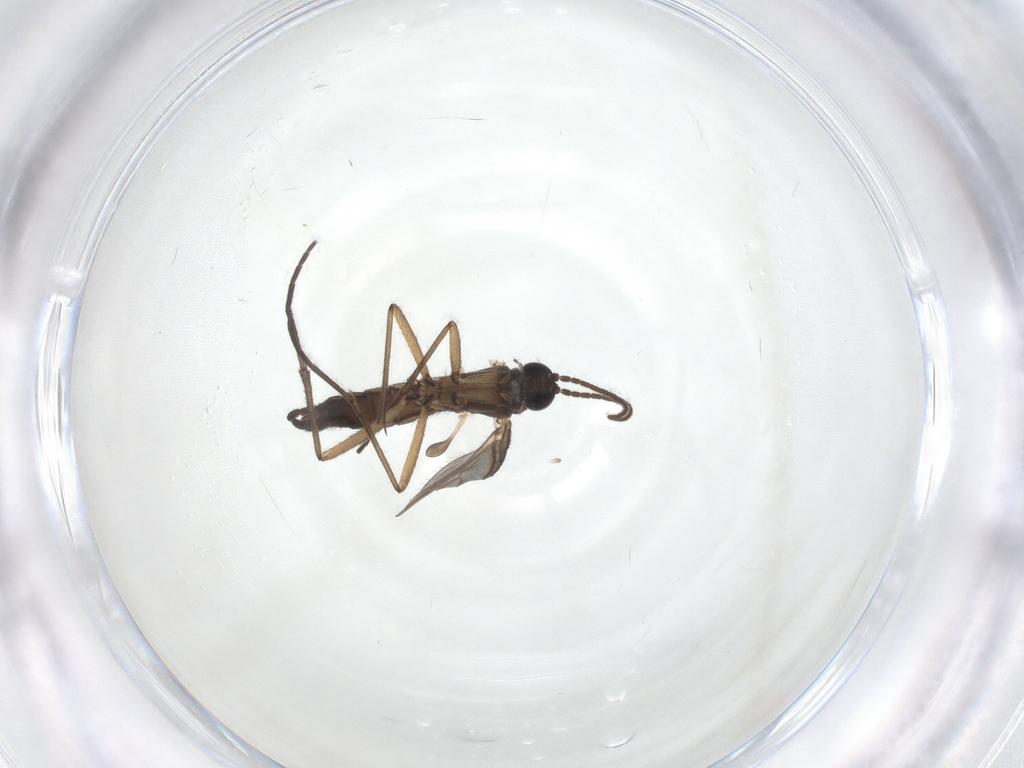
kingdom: Animalia
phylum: Arthropoda
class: Insecta
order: Diptera
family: Sciaridae
